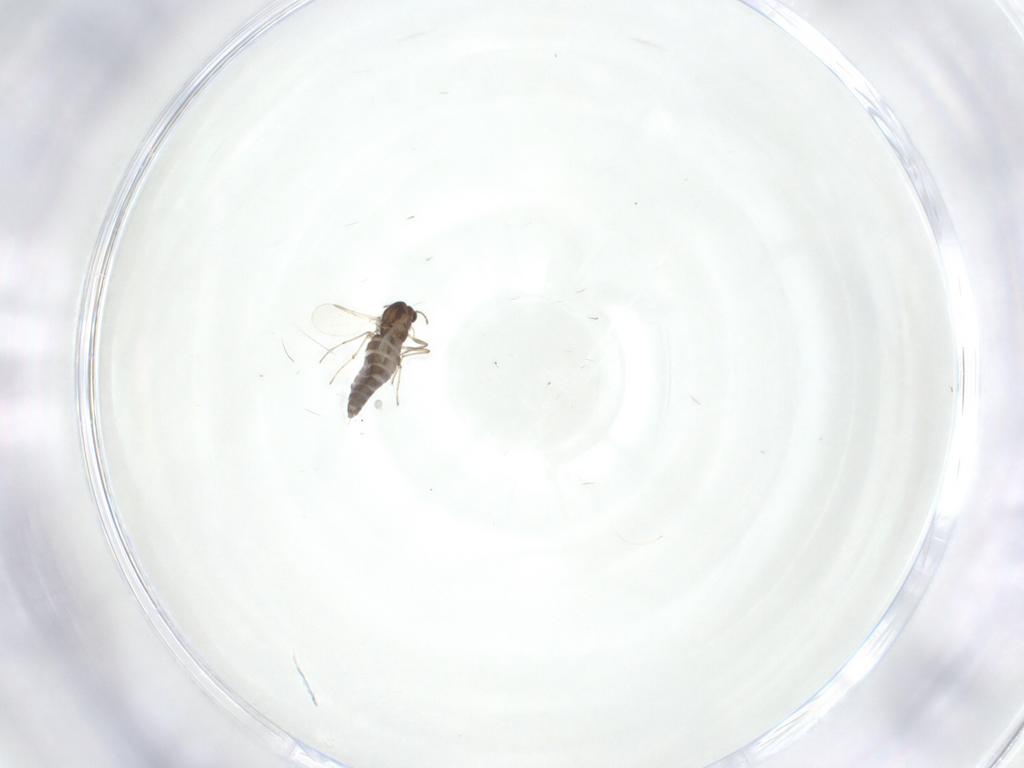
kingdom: Animalia
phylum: Arthropoda
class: Insecta
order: Diptera
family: Chironomidae
